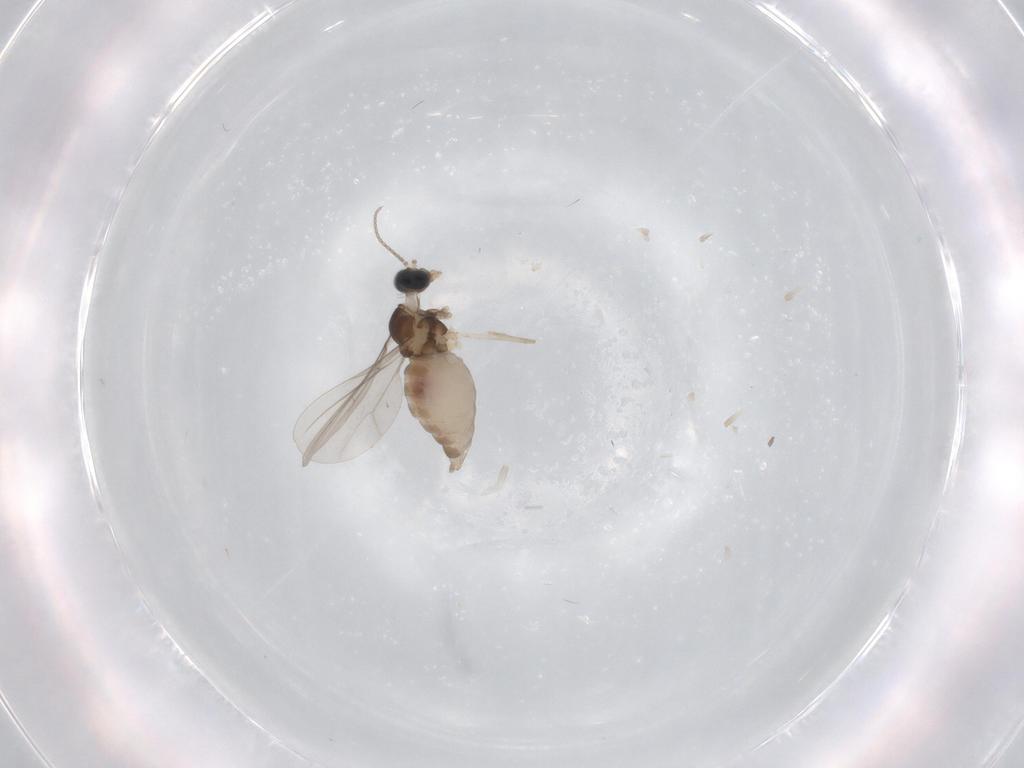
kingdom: Animalia
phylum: Arthropoda
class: Insecta
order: Diptera
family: Cecidomyiidae
